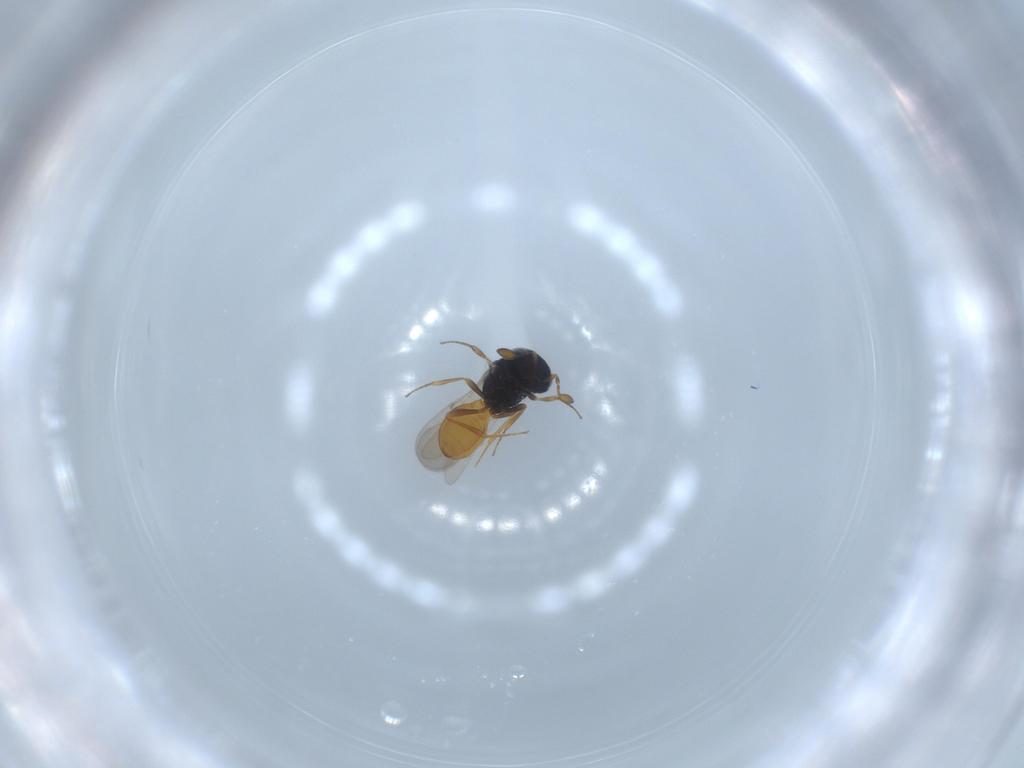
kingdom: Animalia
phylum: Arthropoda
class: Insecta
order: Hymenoptera
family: Scelionidae
